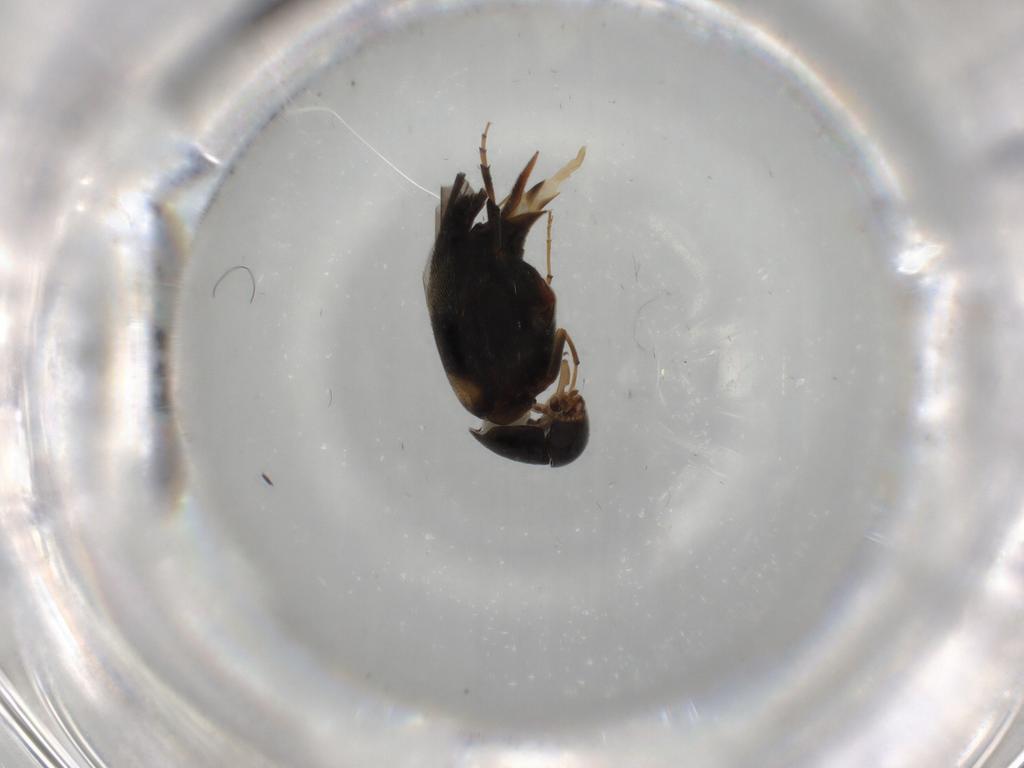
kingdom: Animalia
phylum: Arthropoda
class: Insecta
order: Coleoptera
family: Mordellidae
